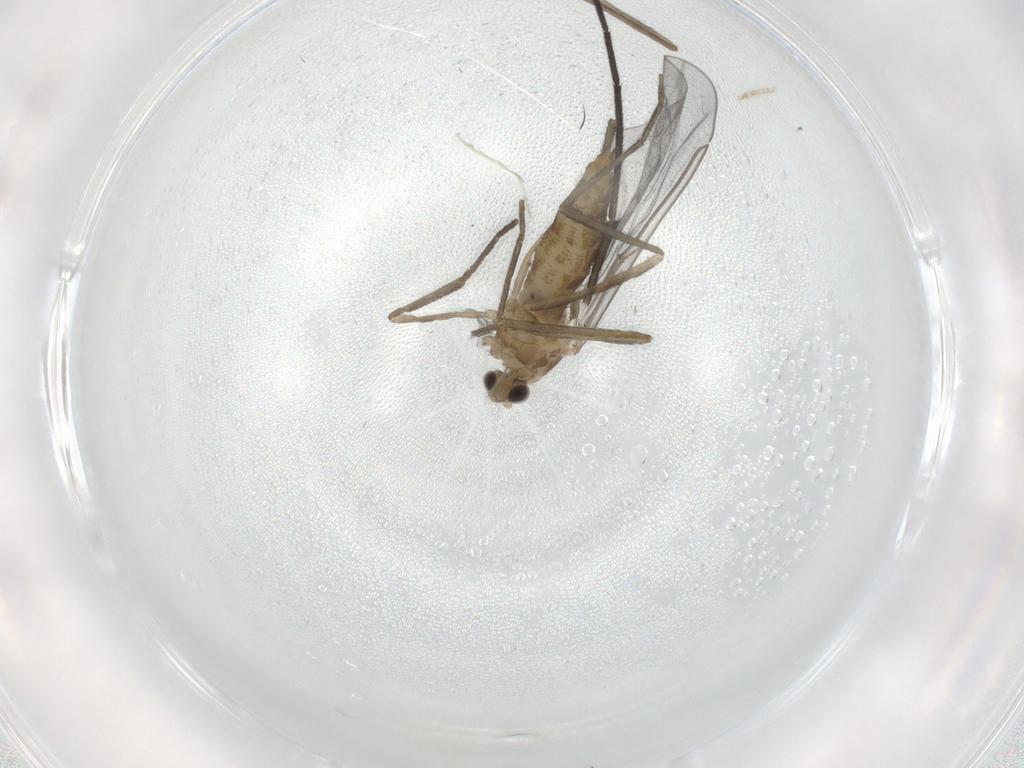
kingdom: Animalia
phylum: Arthropoda
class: Insecta
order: Diptera
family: Cecidomyiidae
